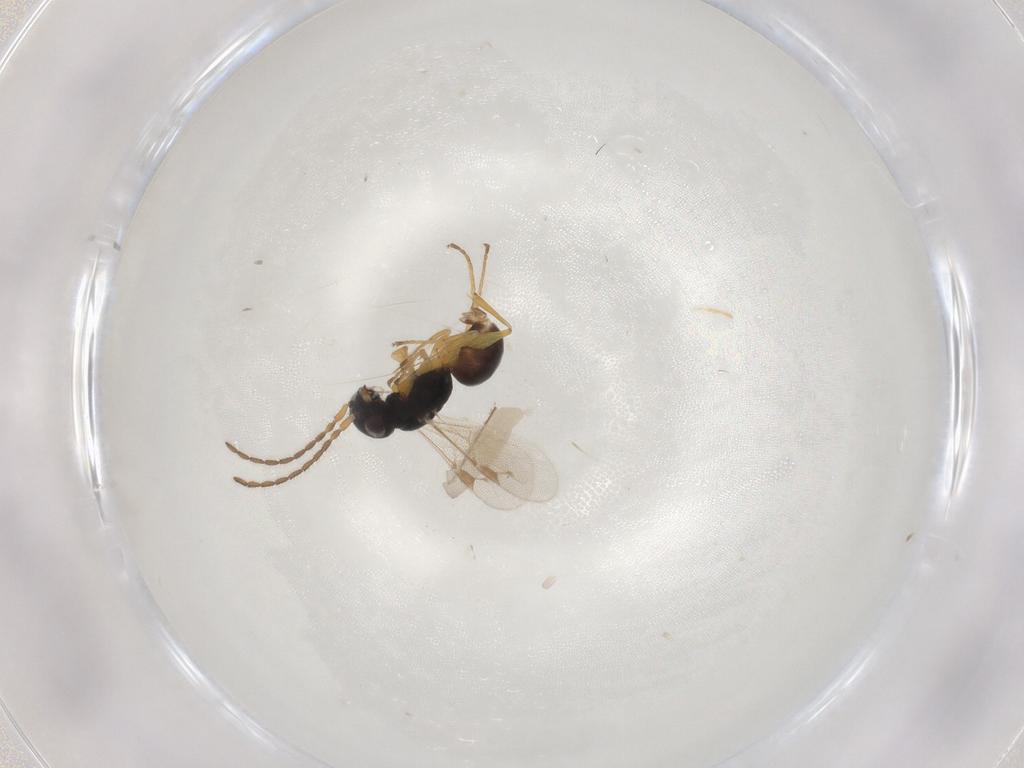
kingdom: Animalia
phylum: Arthropoda
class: Insecta
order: Hymenoptera
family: Dryinidae
